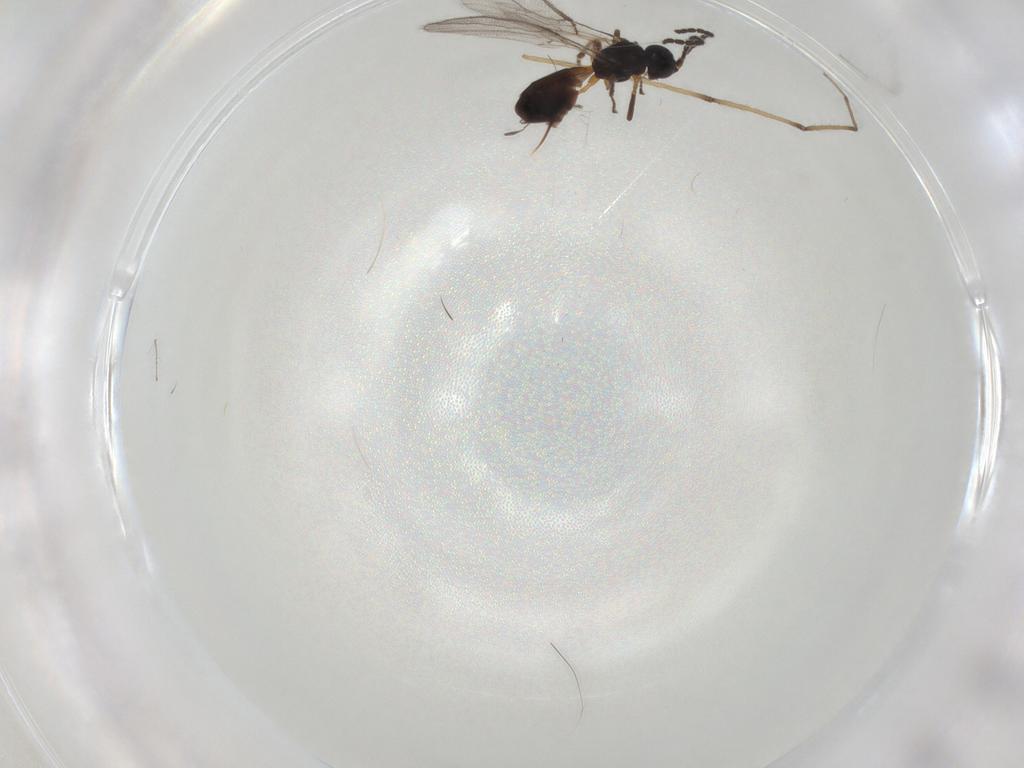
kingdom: Animalia
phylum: Arthropoda
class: Insecta
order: Hymenoptera
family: Braconidae
